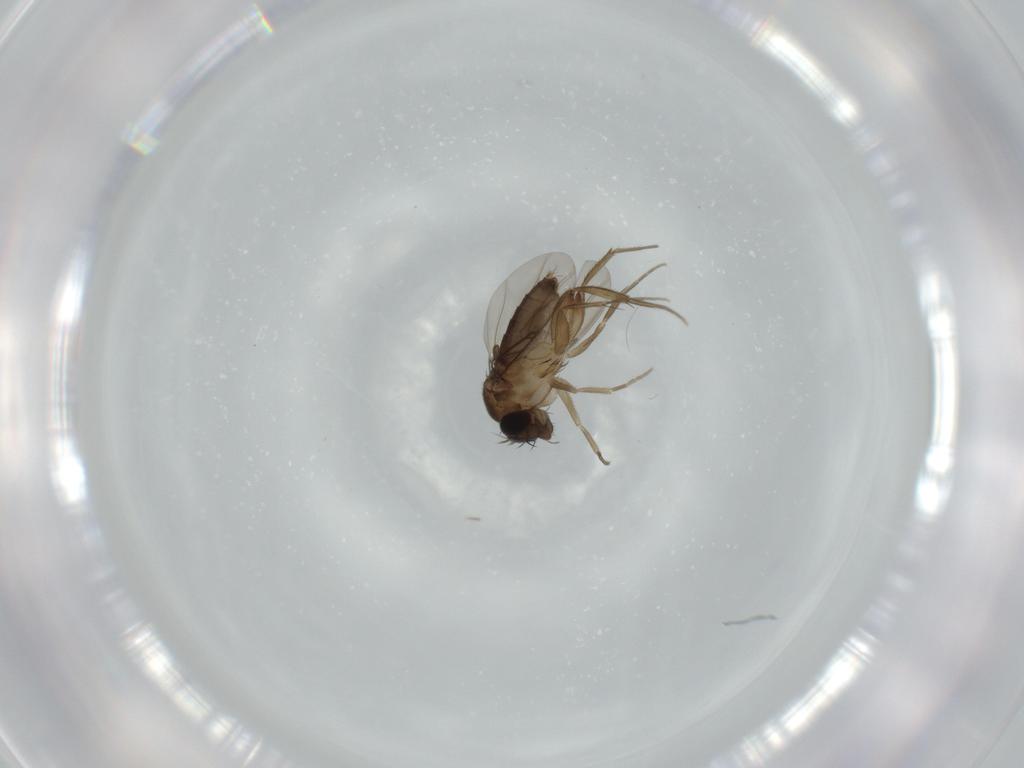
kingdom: Animalia
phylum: Arthropoda
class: Insecta
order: Diptera
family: Phoridae
